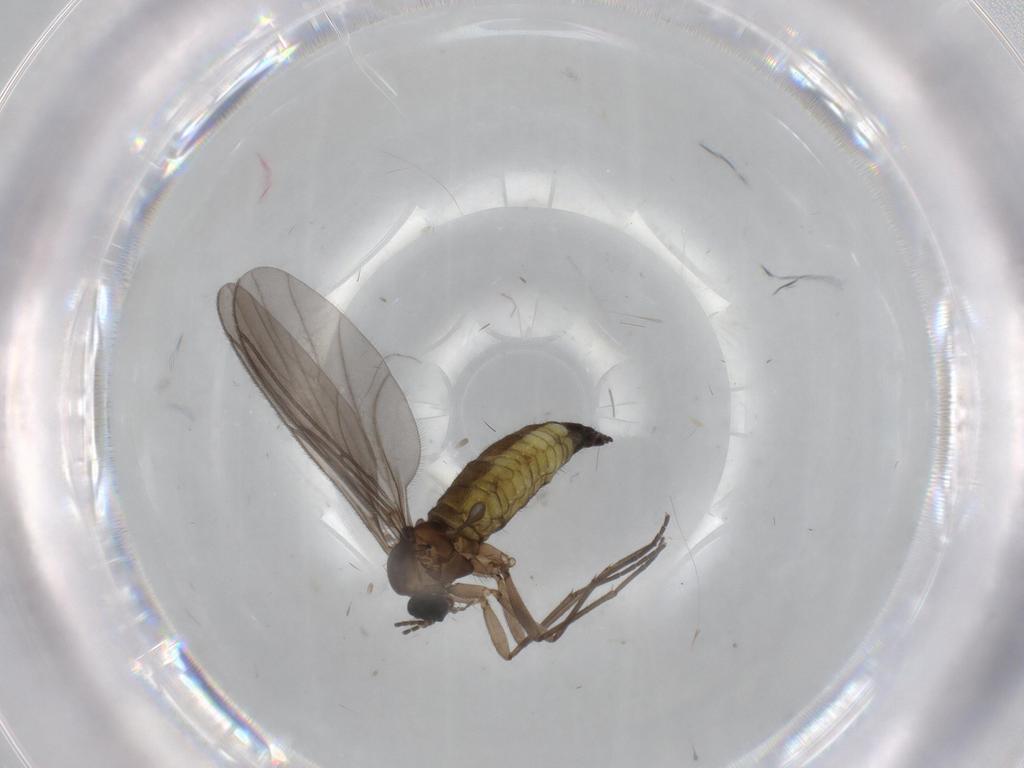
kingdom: Animalia
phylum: Arthropoda
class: Insecta
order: Diptera
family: Sciaridae
